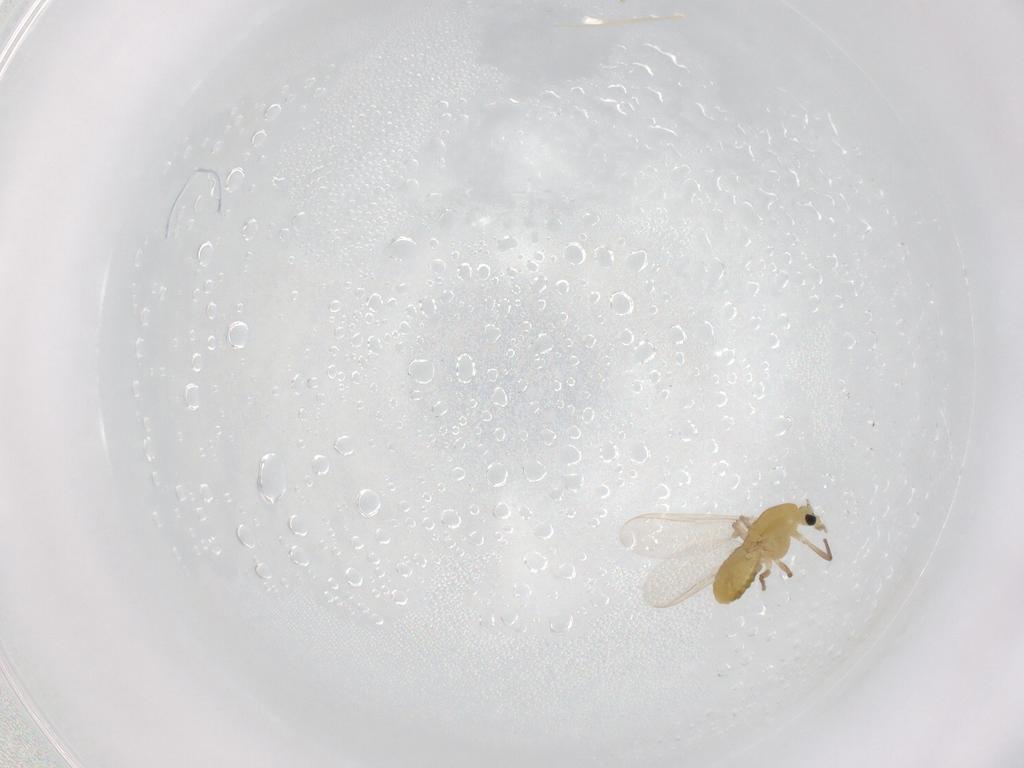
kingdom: Animalia
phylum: Arthropoda
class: Insecta
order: Diptera
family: Chironomidae
